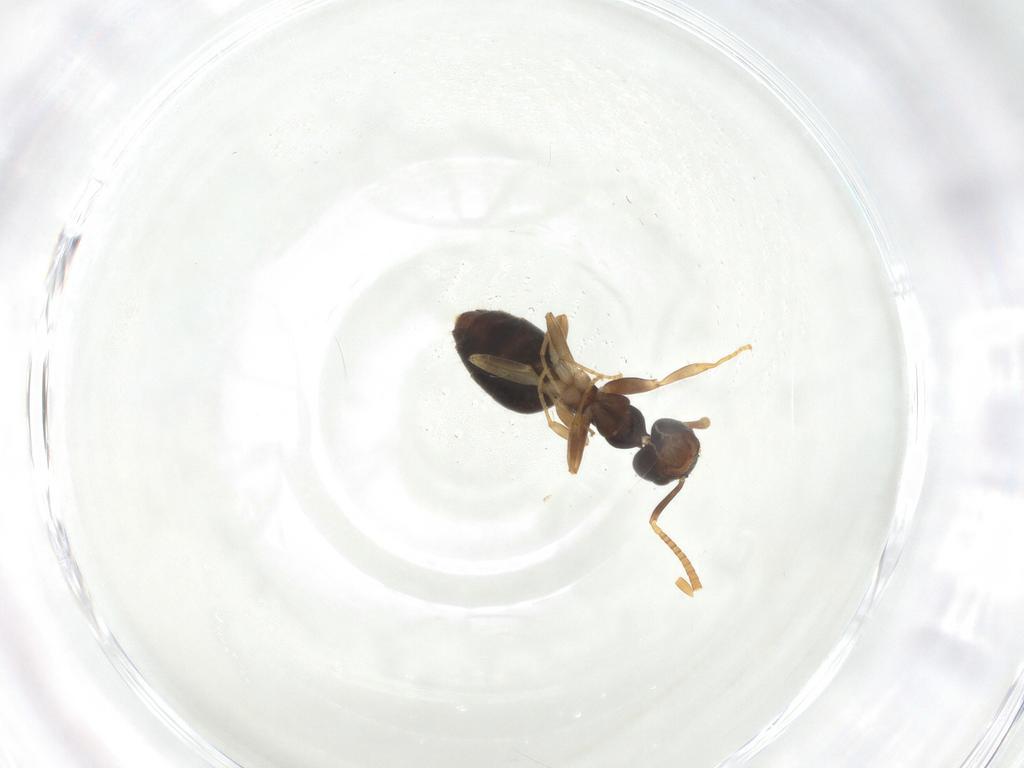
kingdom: Animalia
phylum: Arthropoda
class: Insecta
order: Coleoptera
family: Scraptiidae
